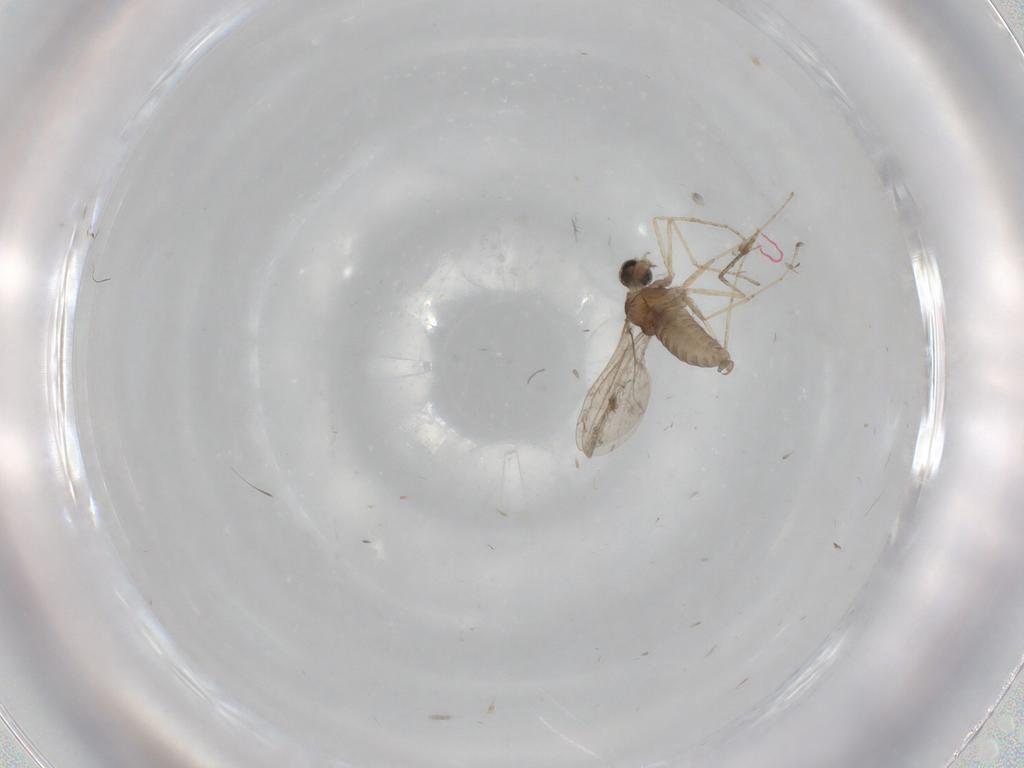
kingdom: Animalia
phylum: Arthropoda
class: Insecta
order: Diptera
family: Cecidomyiidae
